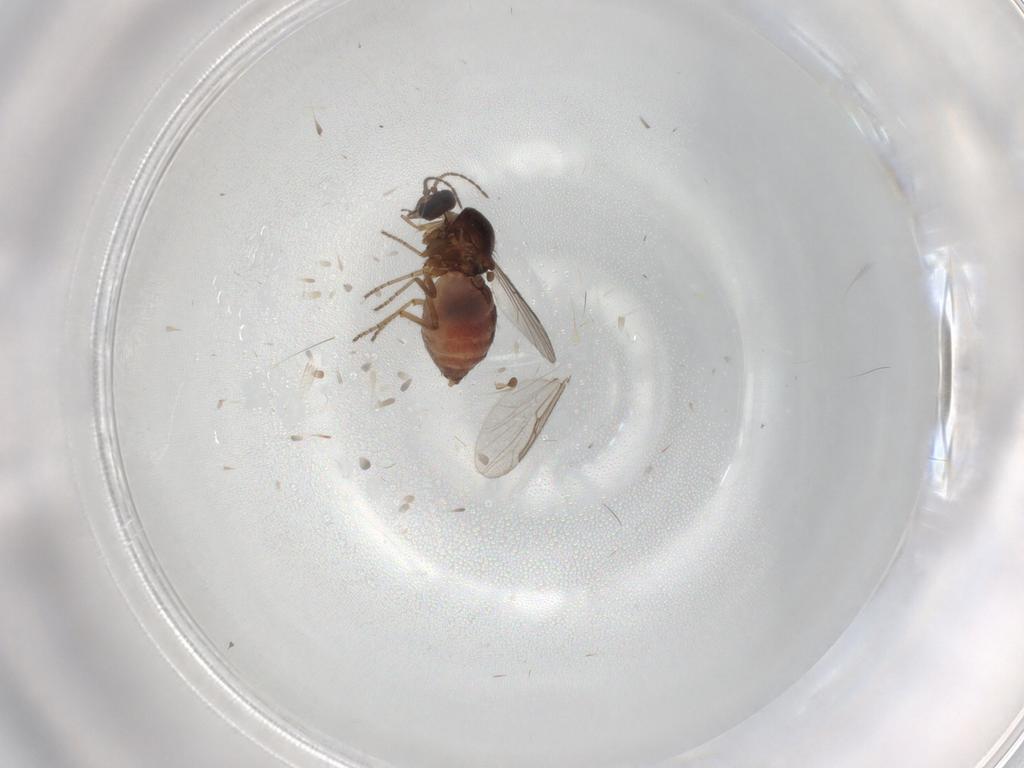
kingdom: Animalia
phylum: Arthropoda
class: Insecta
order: Diptera
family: Ceratopogonidae
